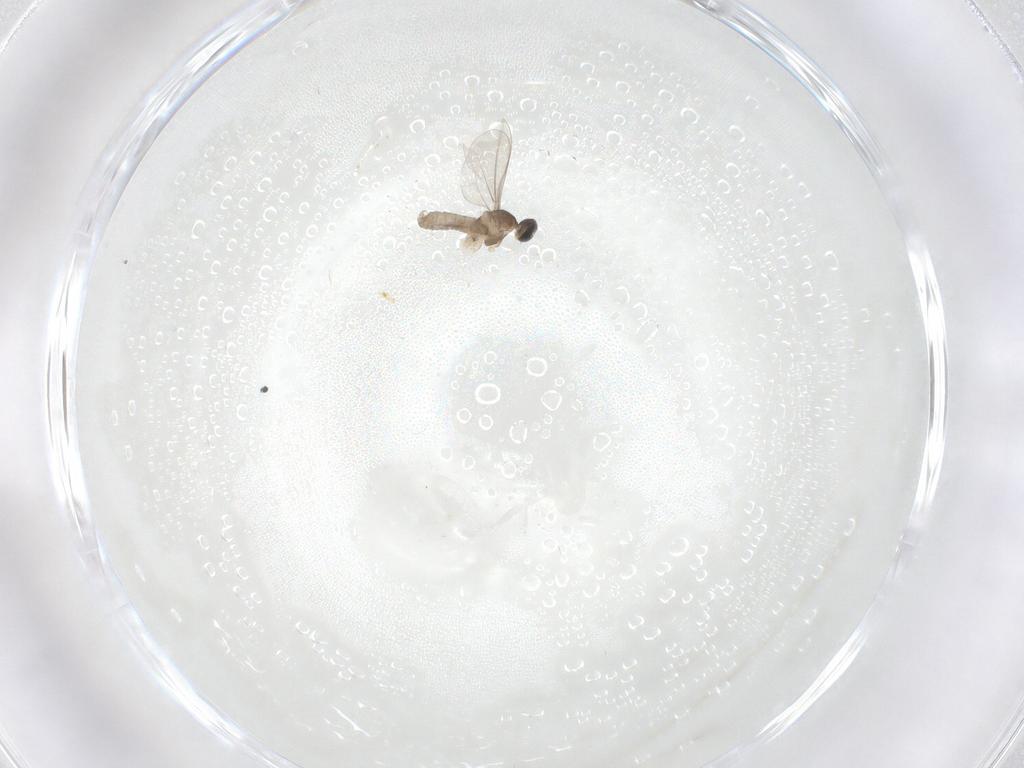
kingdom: Animalia
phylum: Arthropoda
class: Insecta
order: Diptera
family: Cecidomyiidae
